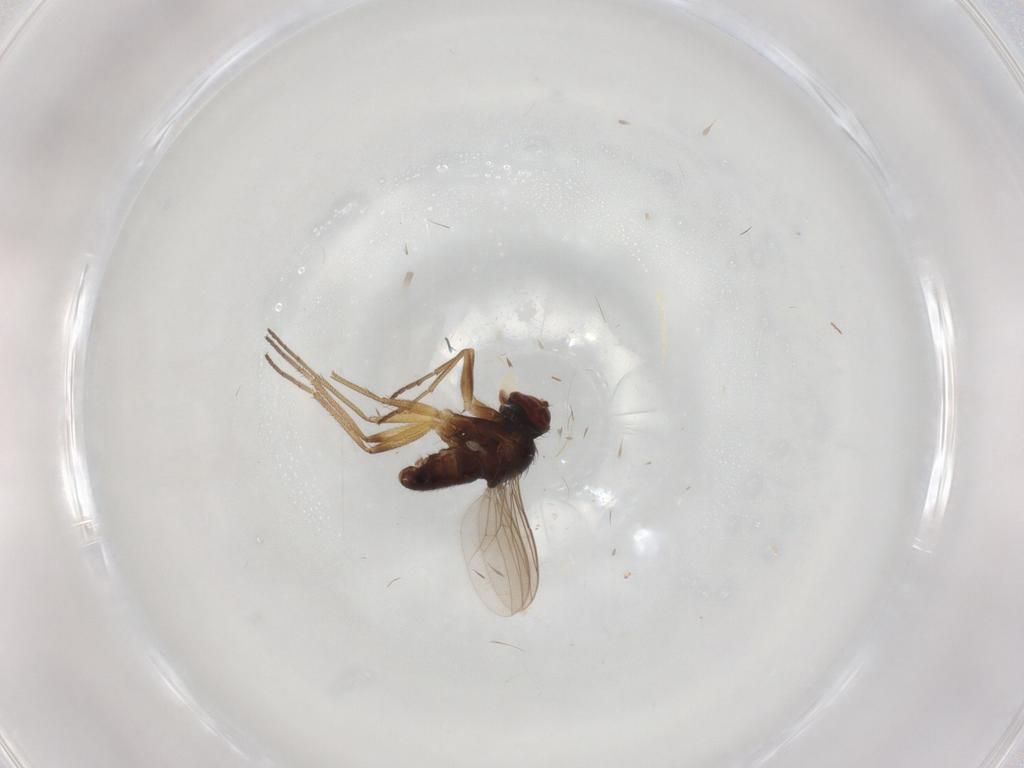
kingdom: Animalia
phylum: Arthropoda
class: Insecta
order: Diptera
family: Dolichopodidae
